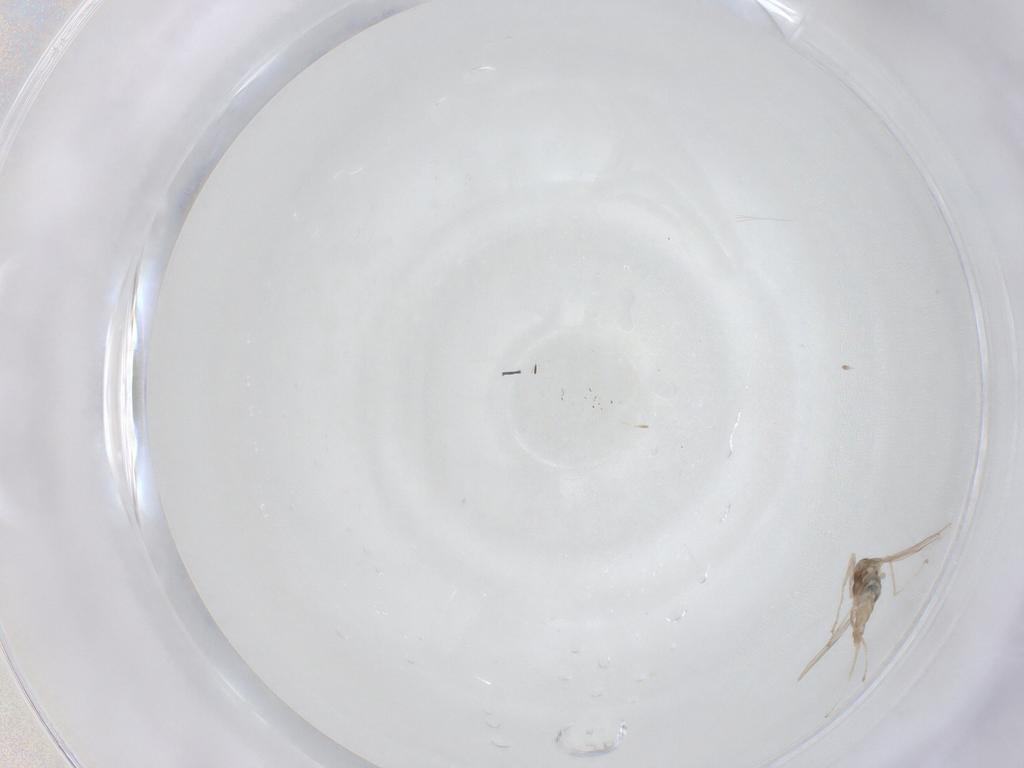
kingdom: Animalia
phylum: Arthropoda
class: Insecta
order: Diptera
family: Cecidomyiidae
